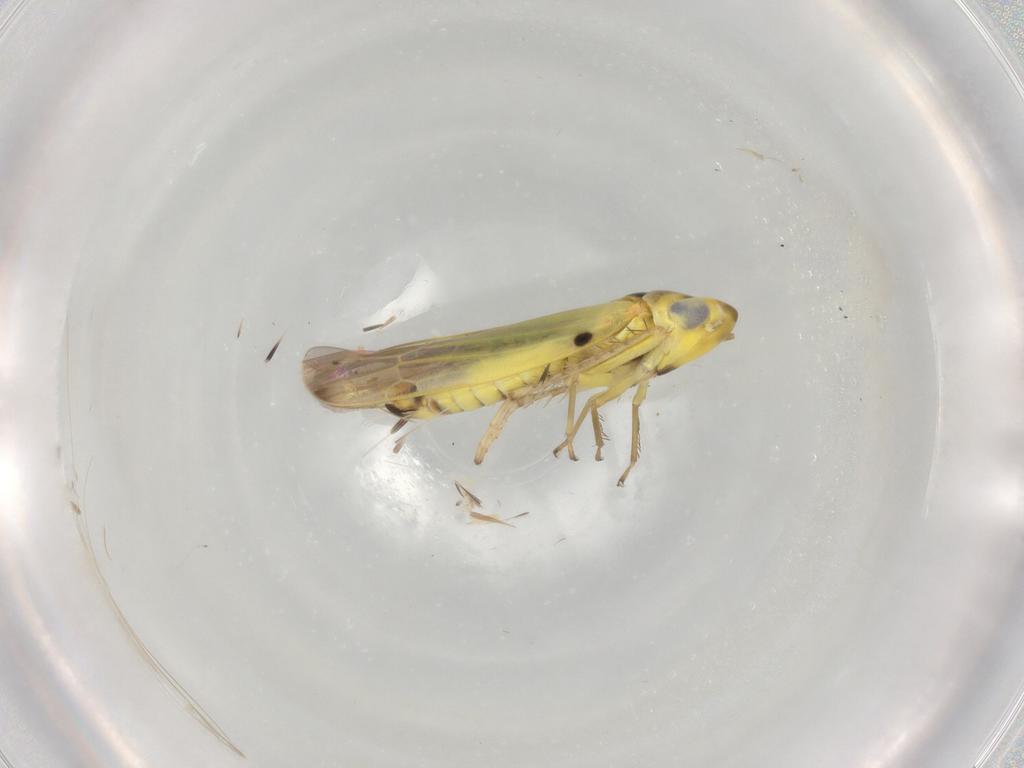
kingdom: Animalia
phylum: Arthropoda
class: Insecta
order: Hemiptera
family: Cicadellidae
